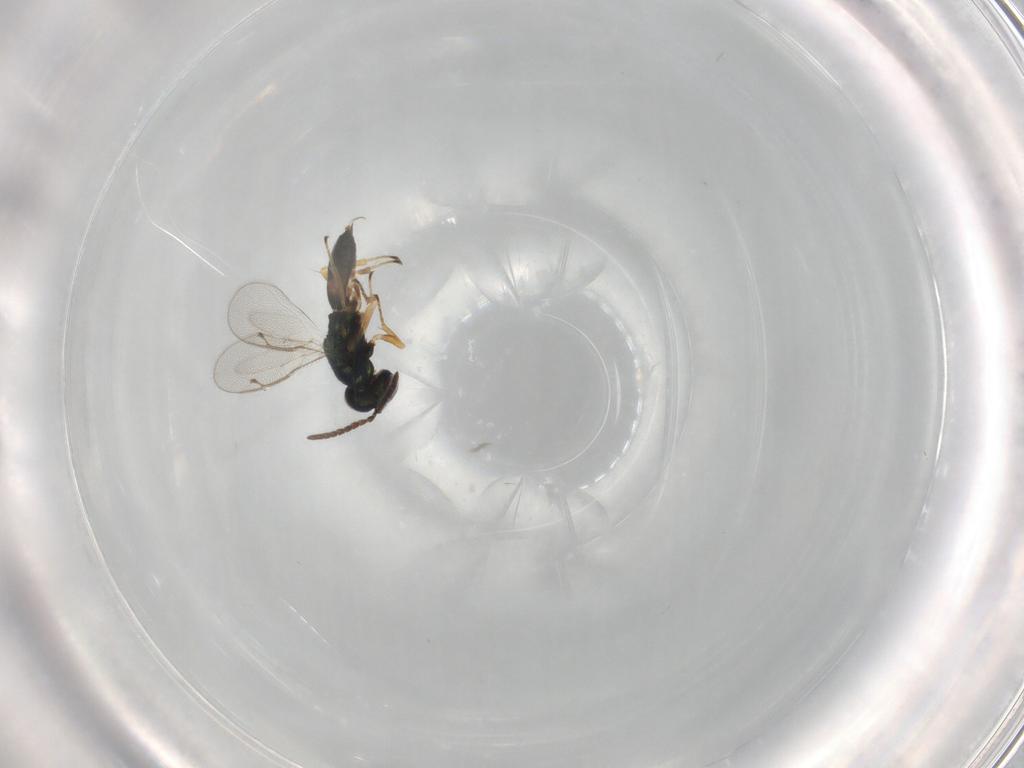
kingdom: Animalia
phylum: Arthropoda
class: Insecta
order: Hymenoptera
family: Pteromalidae
